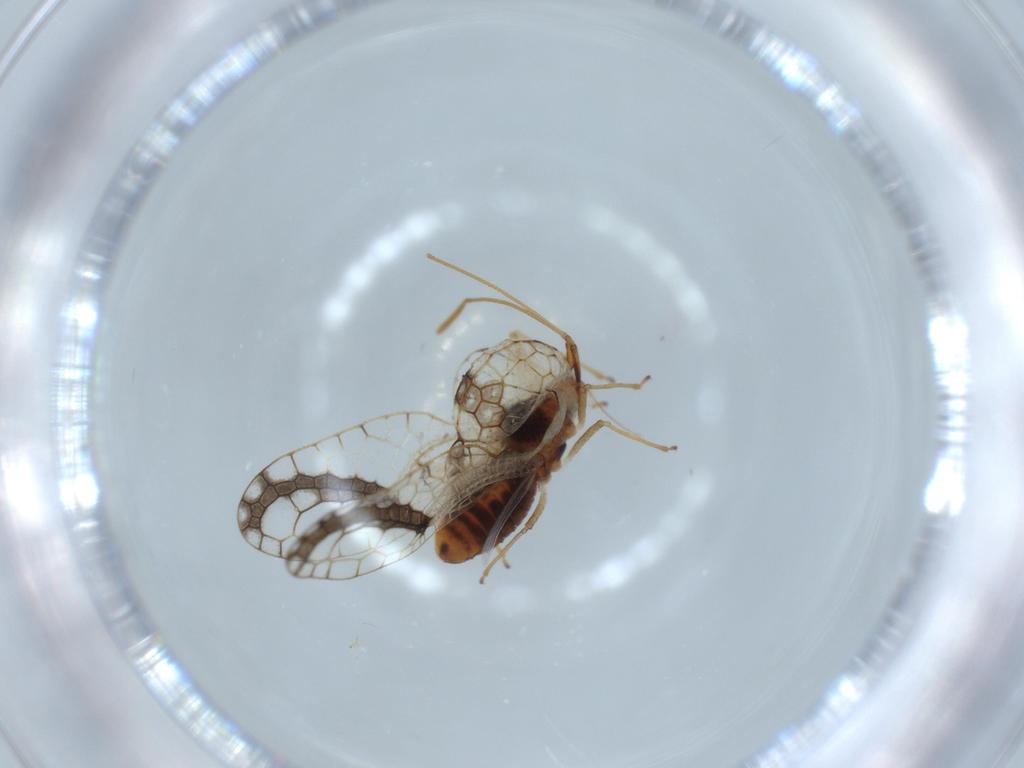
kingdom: Animalia
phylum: Arthropoda
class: Insecta
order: Hemiptera
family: Tingidae
